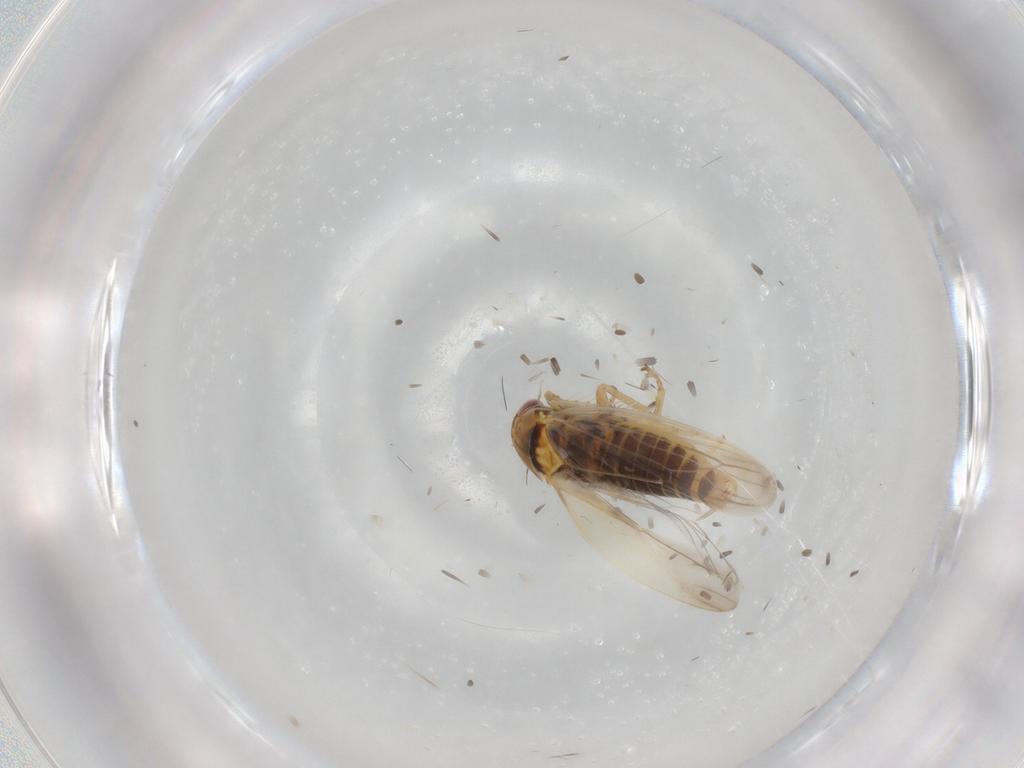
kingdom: Animalia
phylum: Arthropoda
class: Insecta
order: Hemiptera
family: Cicadellidae
